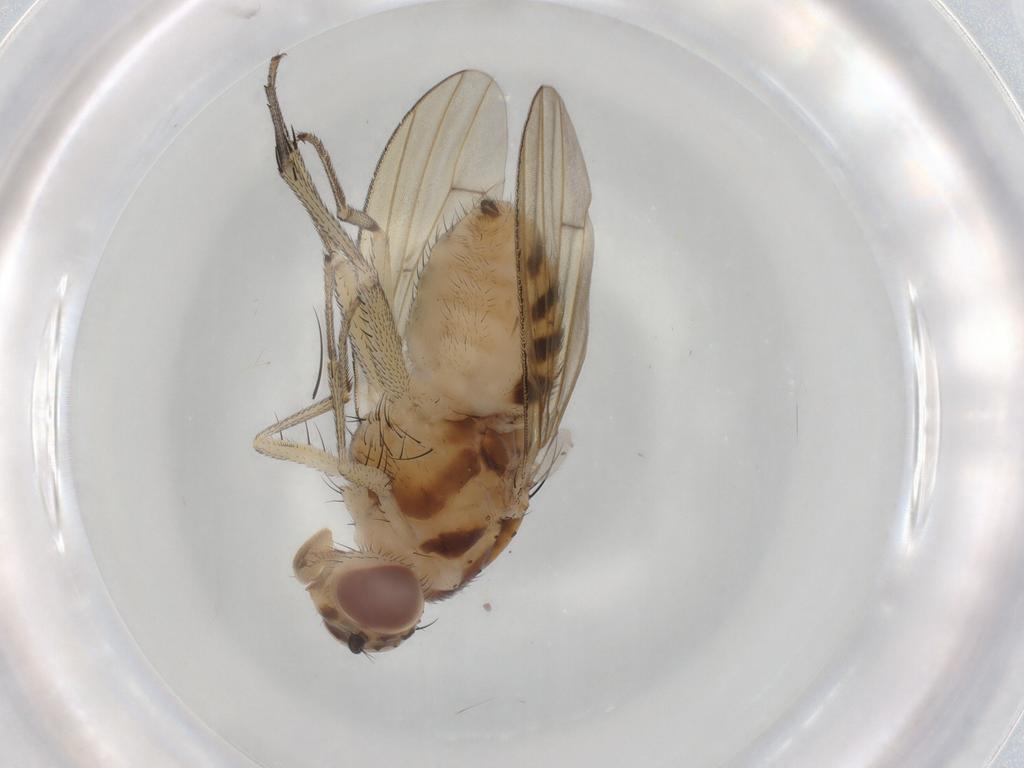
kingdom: Animalia
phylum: Arthropoda
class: Insecta
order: Diptera
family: Lauxaniidae
